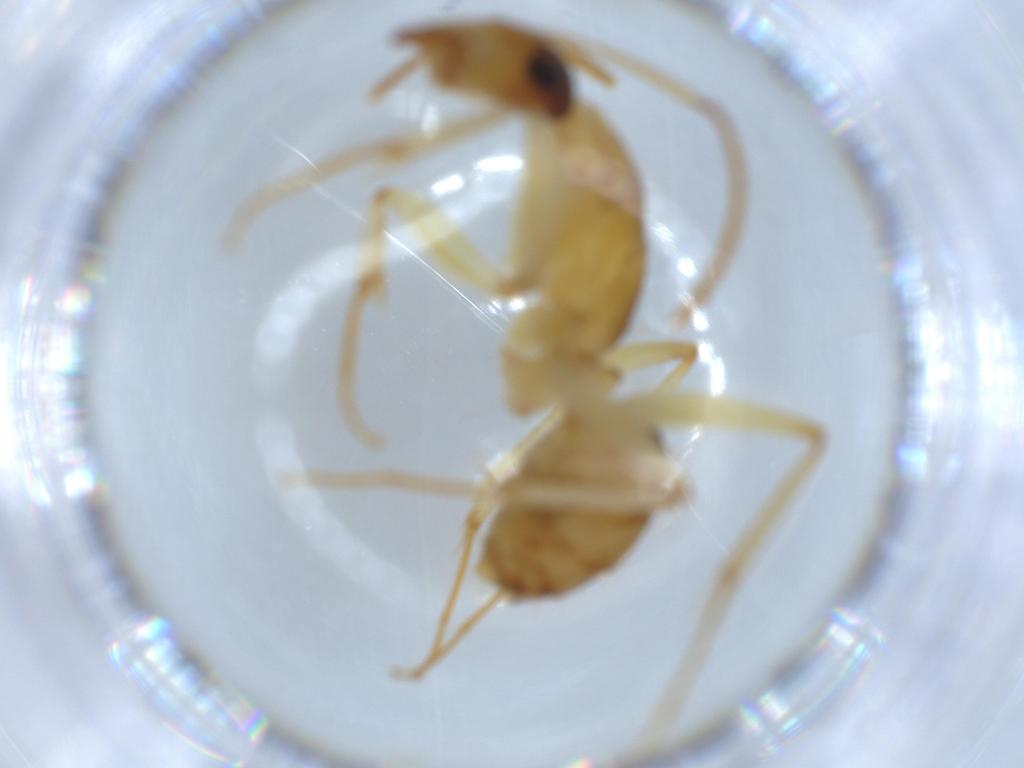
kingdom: Animalia
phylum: Arthropoda
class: Insecta
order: Hymenoptera
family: Formicidae
